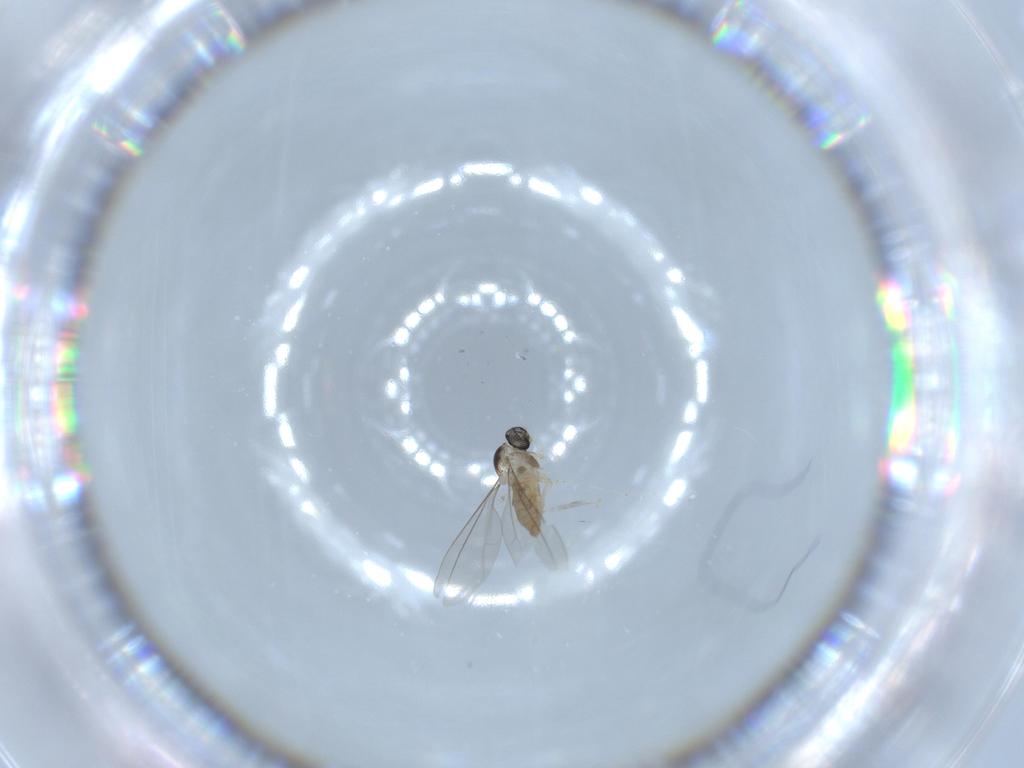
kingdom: Animalia
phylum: Arthropoda
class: Insecta
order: Diptera
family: Cecidomyiidae
